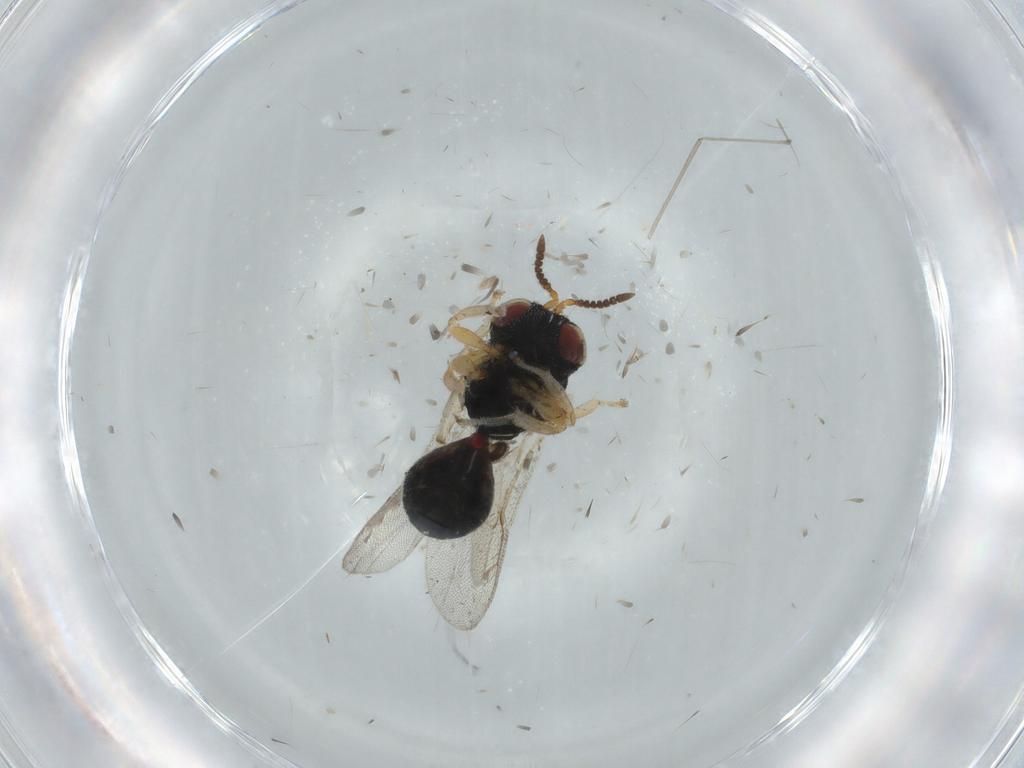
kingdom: Animalia
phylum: Arthropoda
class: Insecta
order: Hymenoptera
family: Eurytomidae
